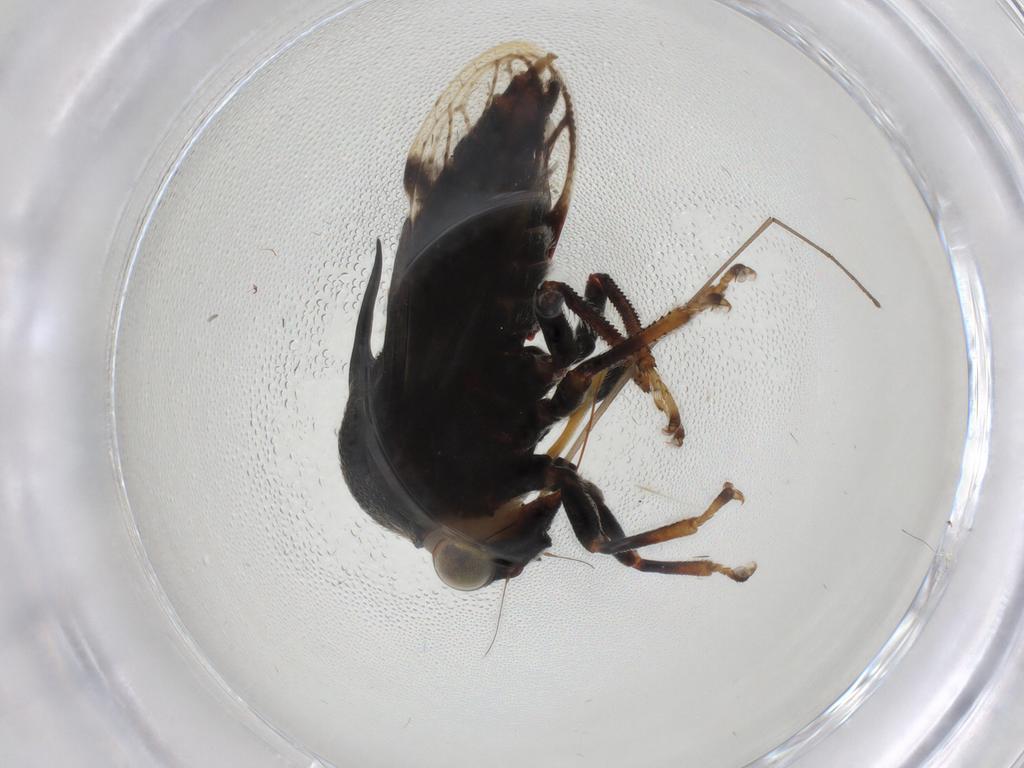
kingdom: Animalia
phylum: Arthropoda
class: Insecta
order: Hemiptera
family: Membracidae
